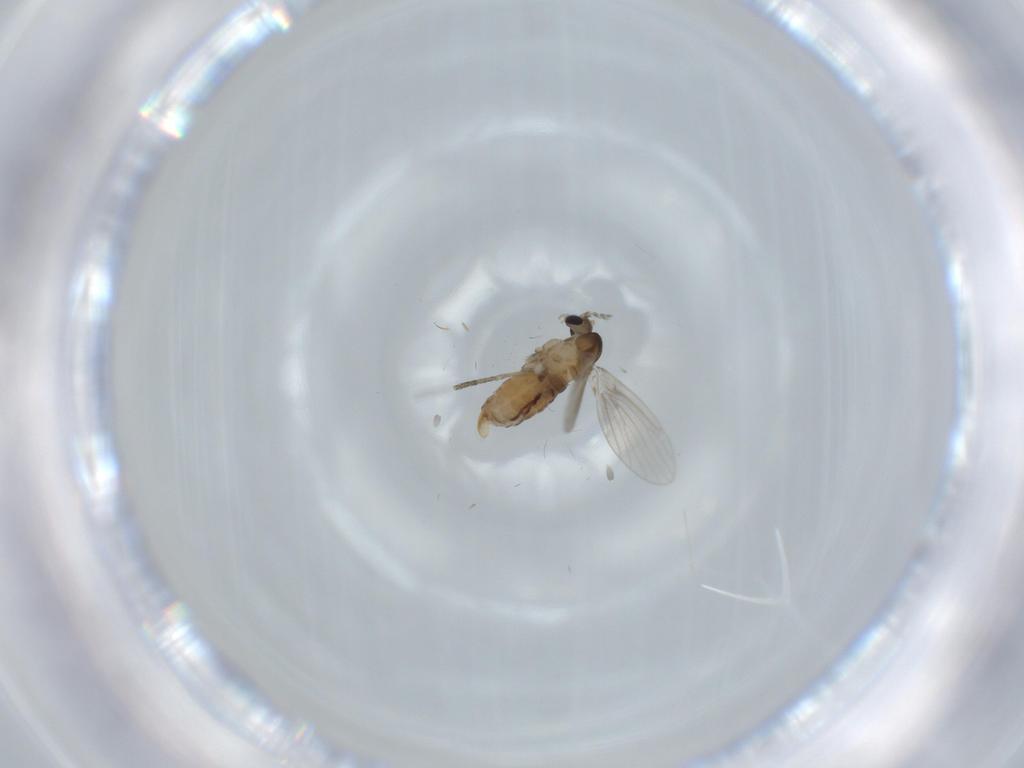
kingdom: Animalia
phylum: Arthropoda
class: Insecta
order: Diptera
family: Psychodidae
